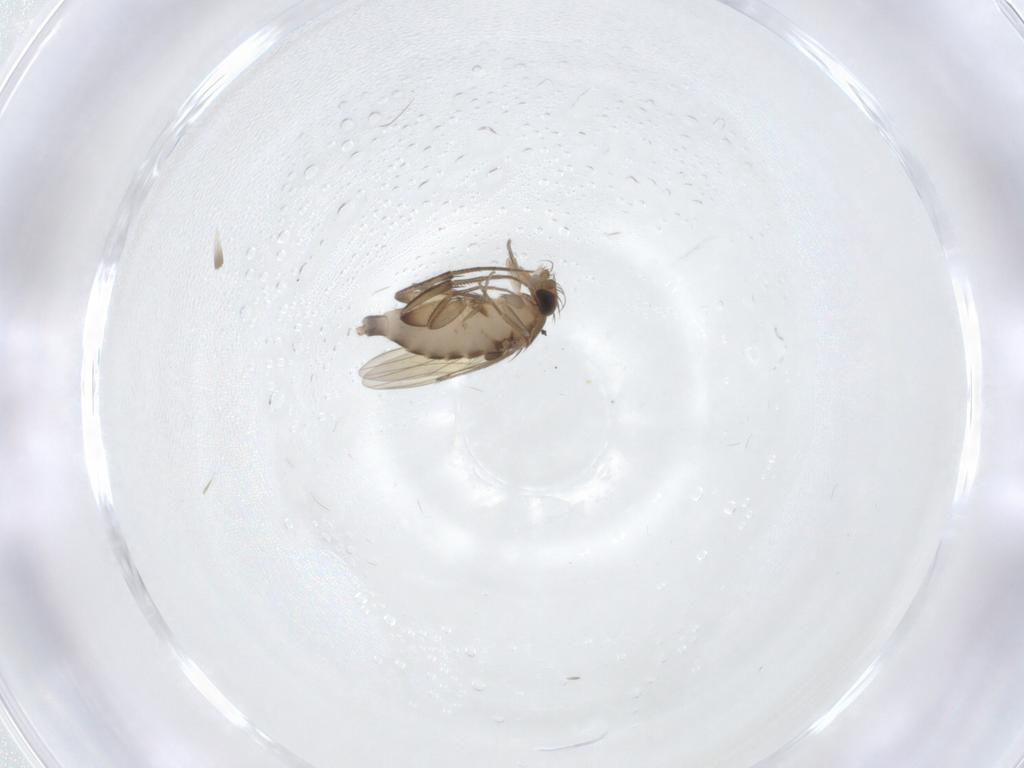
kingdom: Animalia
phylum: Arthropoda
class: Insecta
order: Diptera
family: Phoridae
